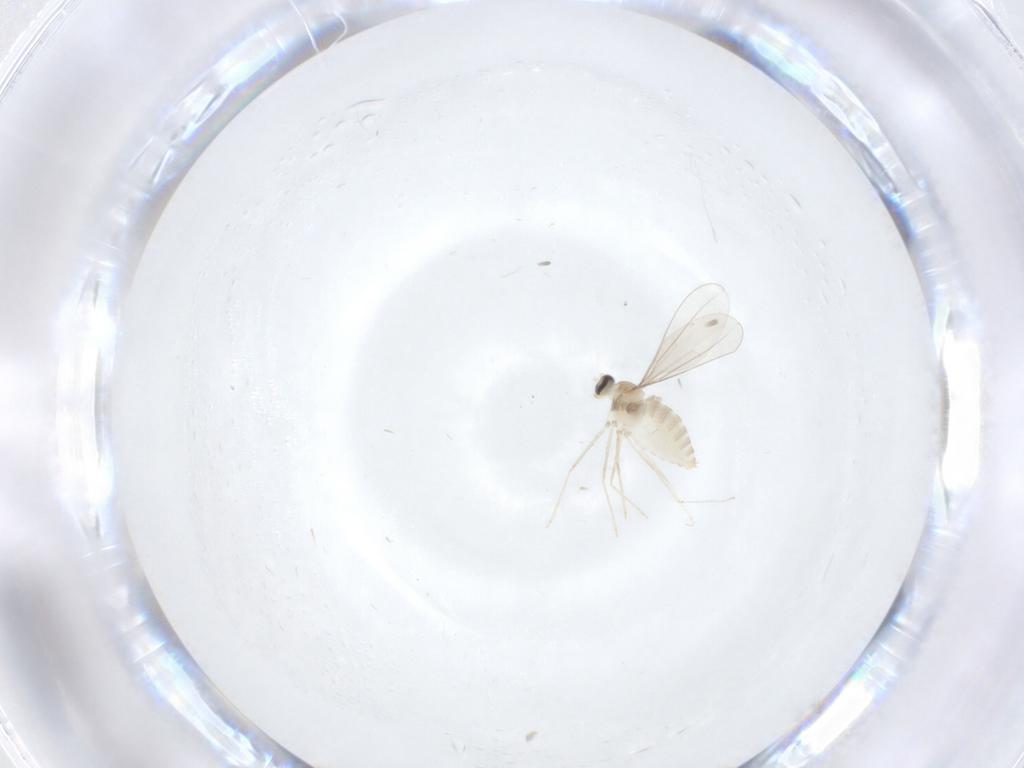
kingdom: Animalia
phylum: Arthropoda
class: Insecta
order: Diptera
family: Cecidomyiidae
